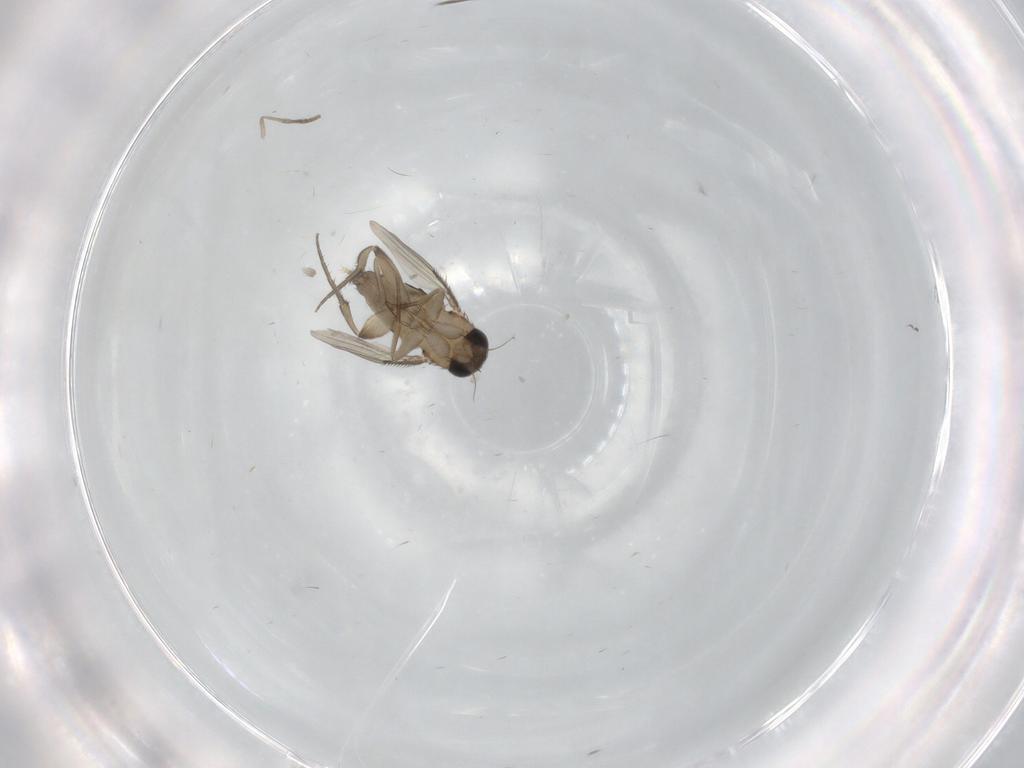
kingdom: Animalia
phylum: Arthropoda
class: Insecta
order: Diptera
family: Phoridae
